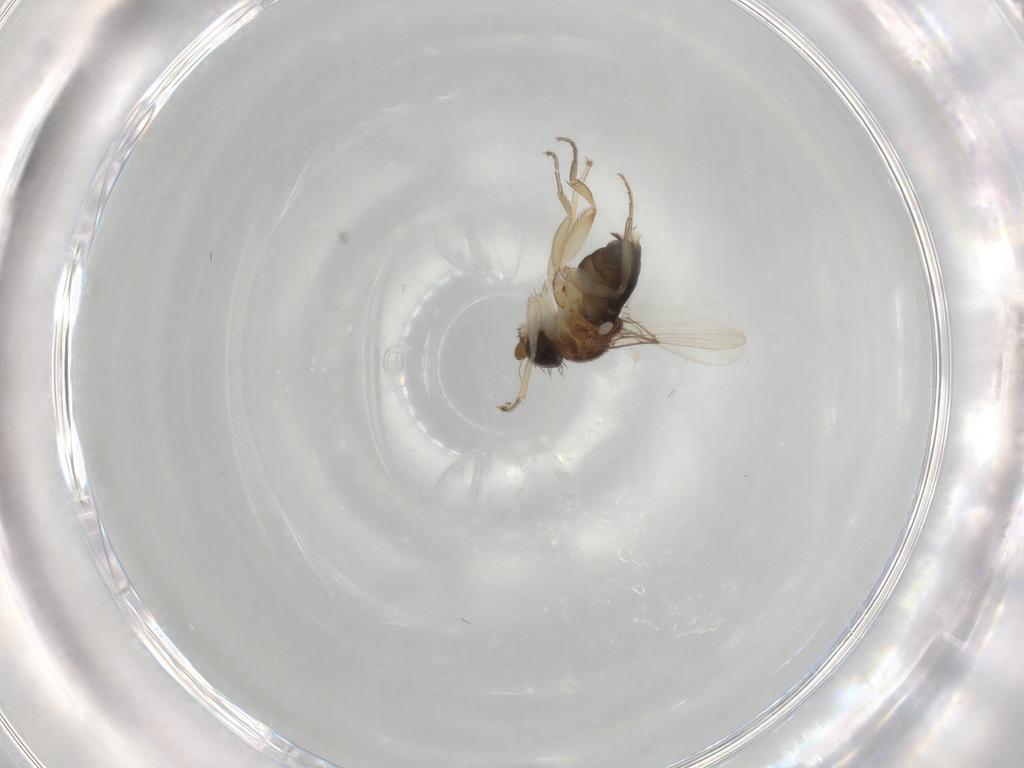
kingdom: Animalia
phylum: Arthropoda
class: Insecta
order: Diptera
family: Phoridae
